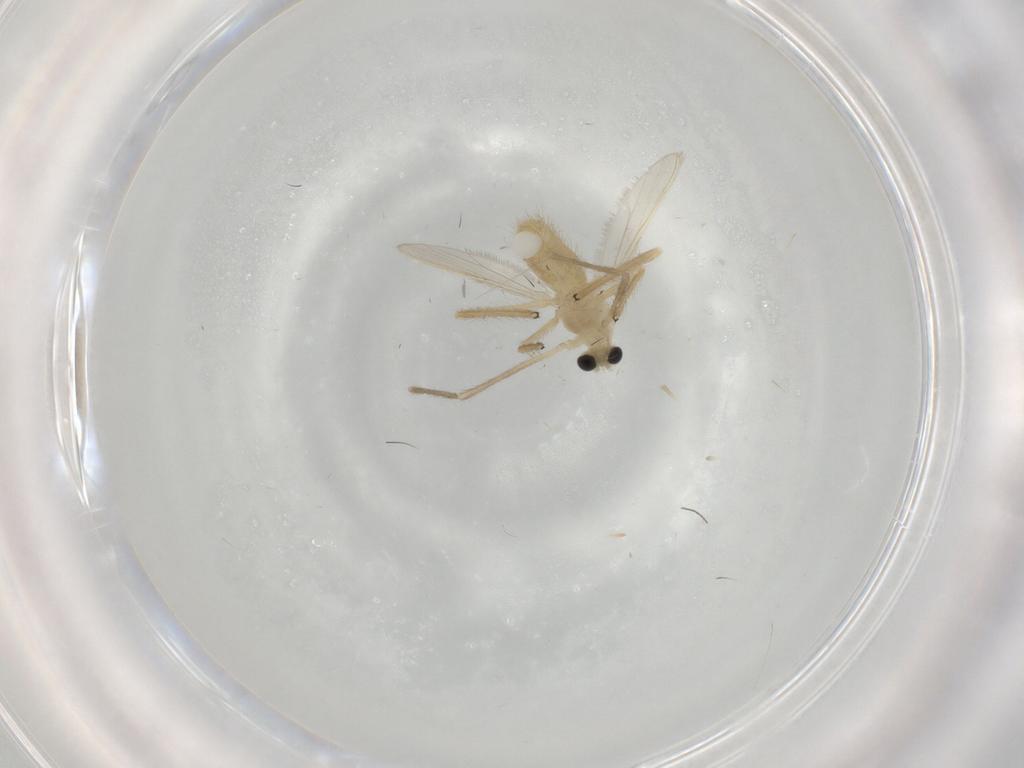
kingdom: Animalia
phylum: Arthropoda
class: Insecta
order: Diptera
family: Chironomidae
